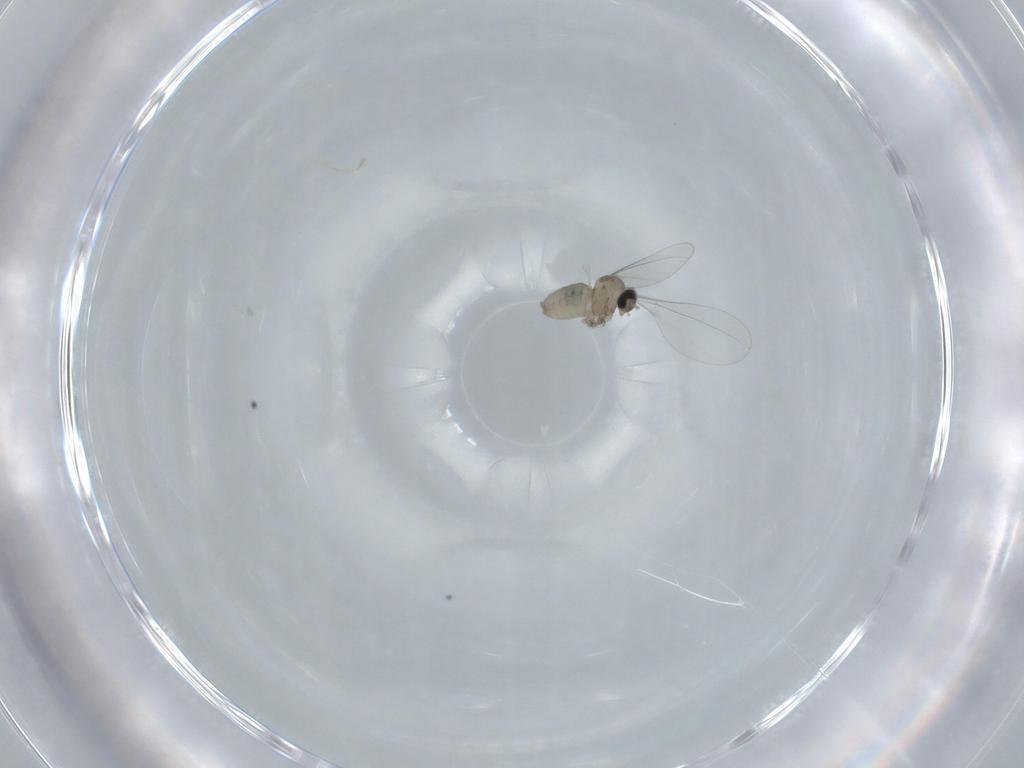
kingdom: Animalia
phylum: Arthropoda
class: Insecta
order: Diptera
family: Cecidomyiidae
